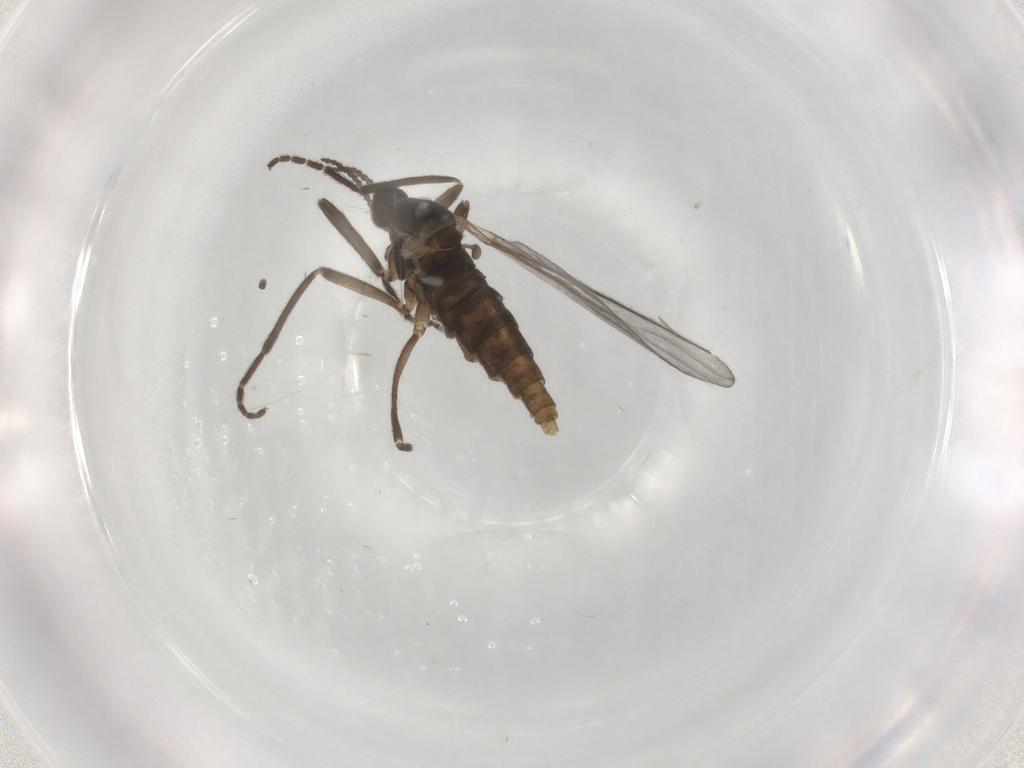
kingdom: Animalia
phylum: Arthropoda
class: Insecta
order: Diptera
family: Cecidomyiidae
